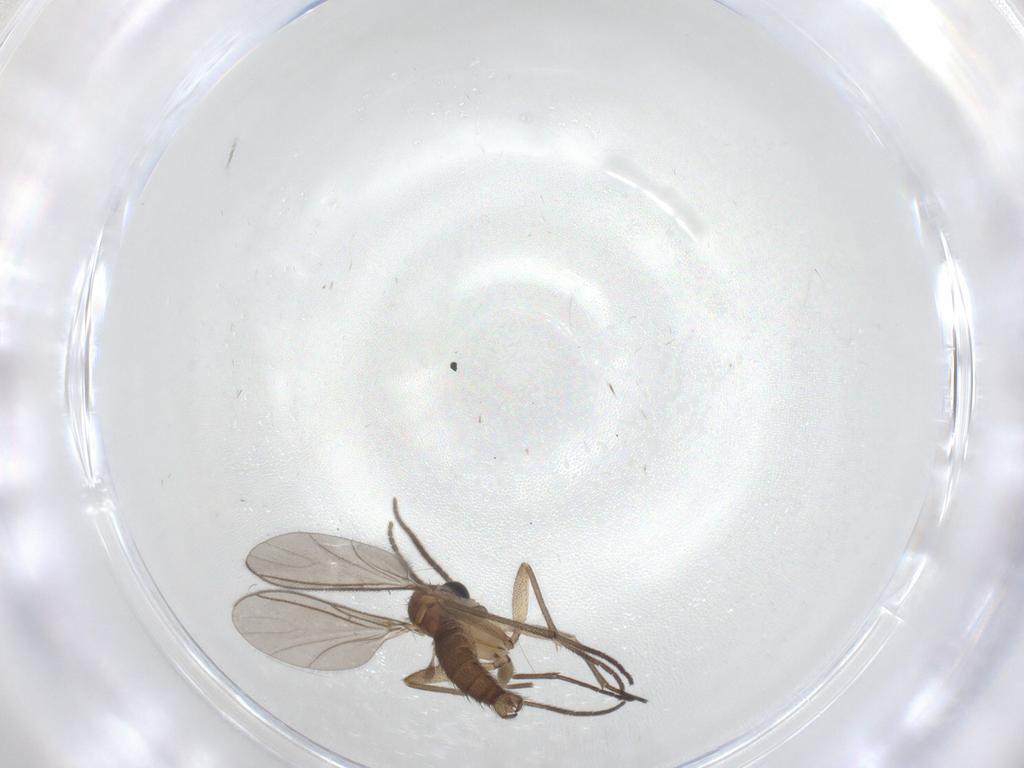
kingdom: Animalia
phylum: Arthropoda
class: Insecta
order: Diptera
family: Sciaridae
